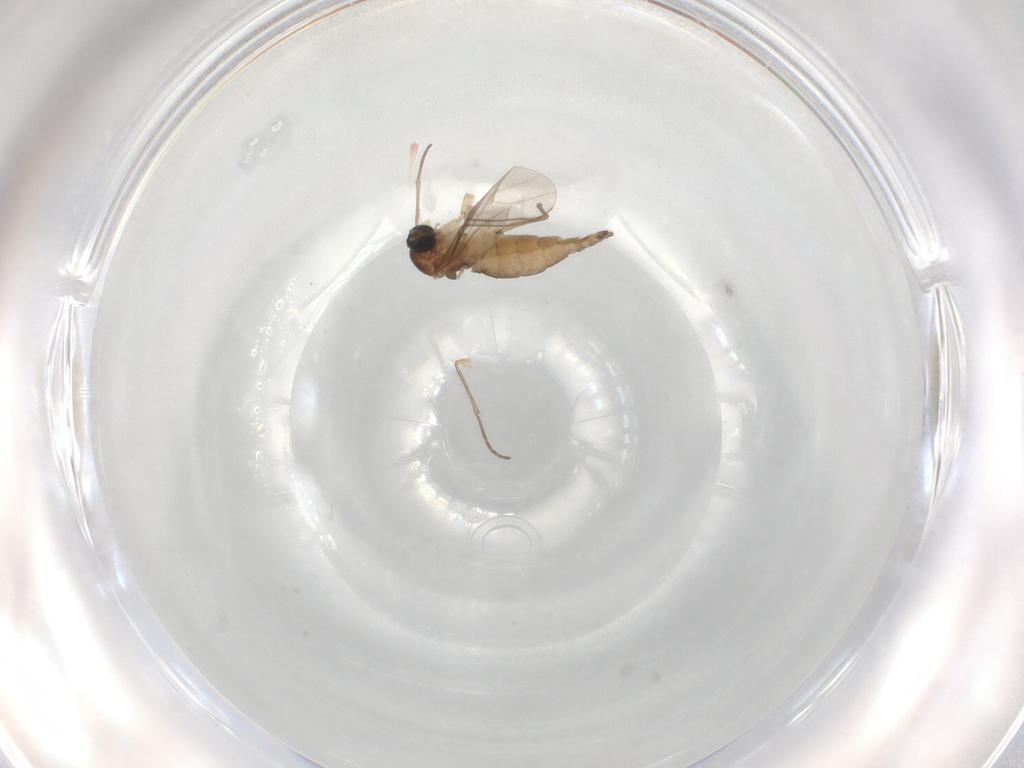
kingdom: Animalia
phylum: Arthropoda
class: Insecta
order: Diptera
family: Sciaridae
